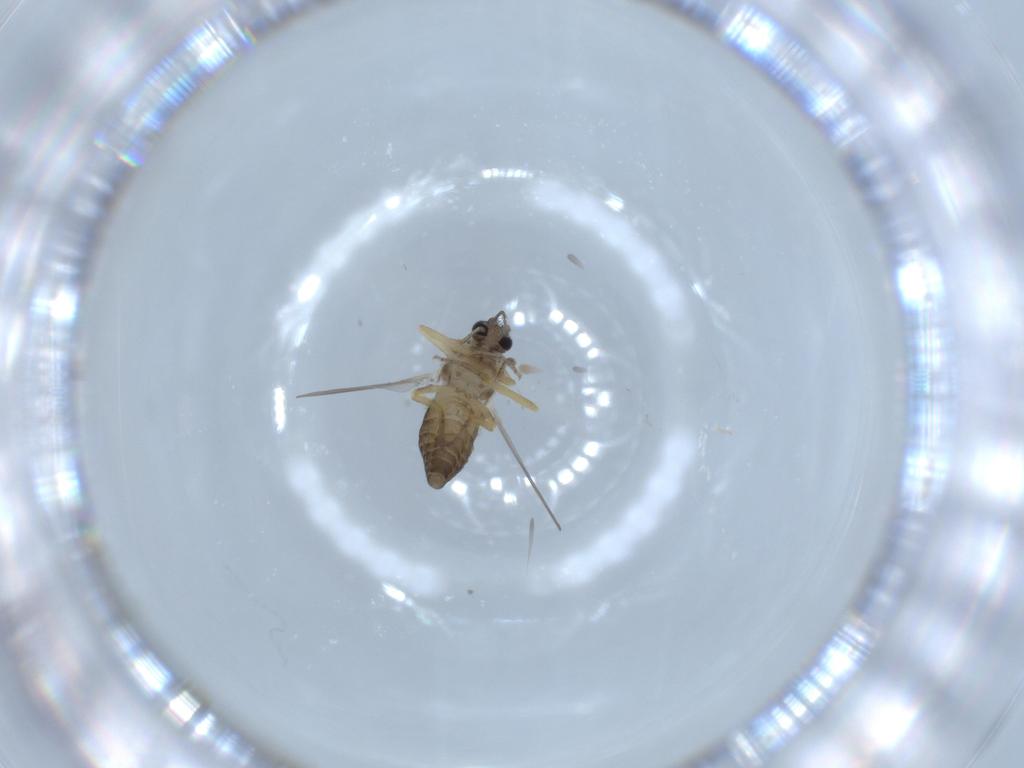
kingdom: Animalia
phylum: Arthropoda
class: Insecta
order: Diptera
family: Ceratopogonidae
